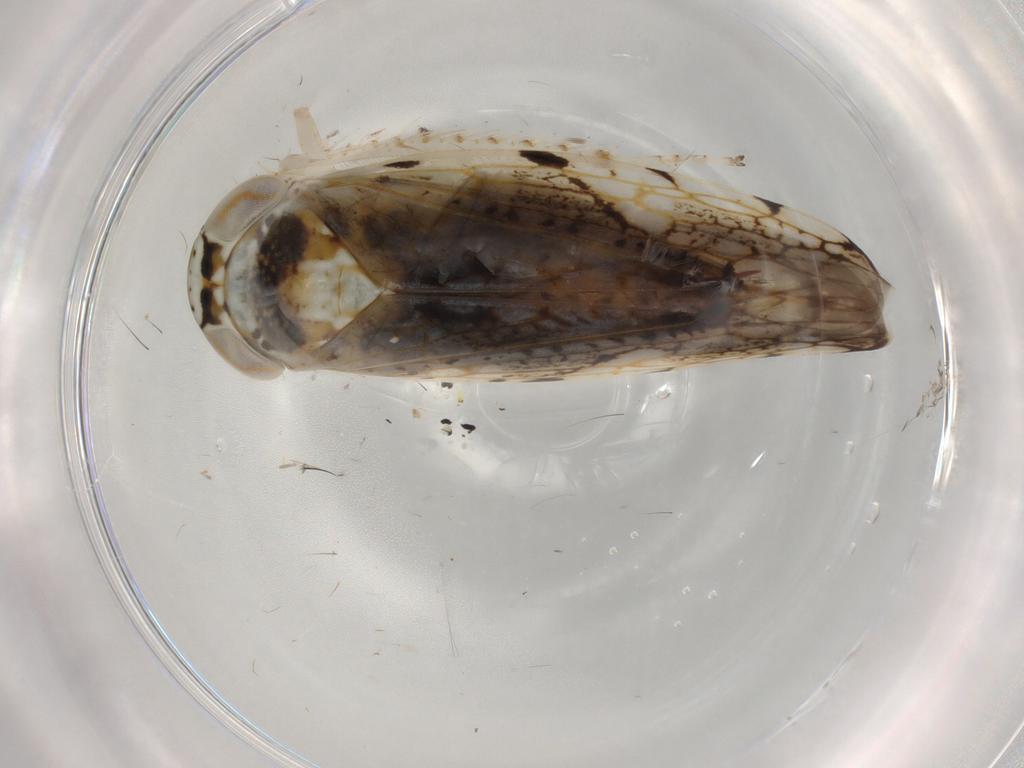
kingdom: Animalia
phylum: Arthropoda
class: Insecta
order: Hemiptera
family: Cicadellidae
